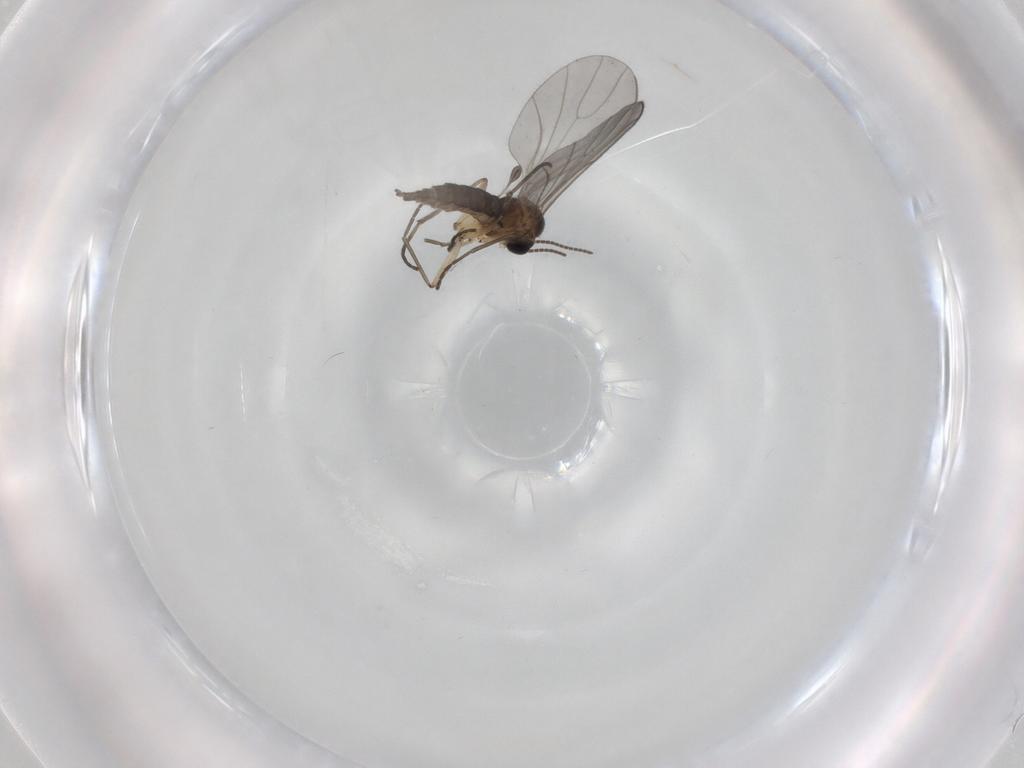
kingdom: Animalia
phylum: Arthropoda
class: Insecta
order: Diptera
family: Sciaridae
